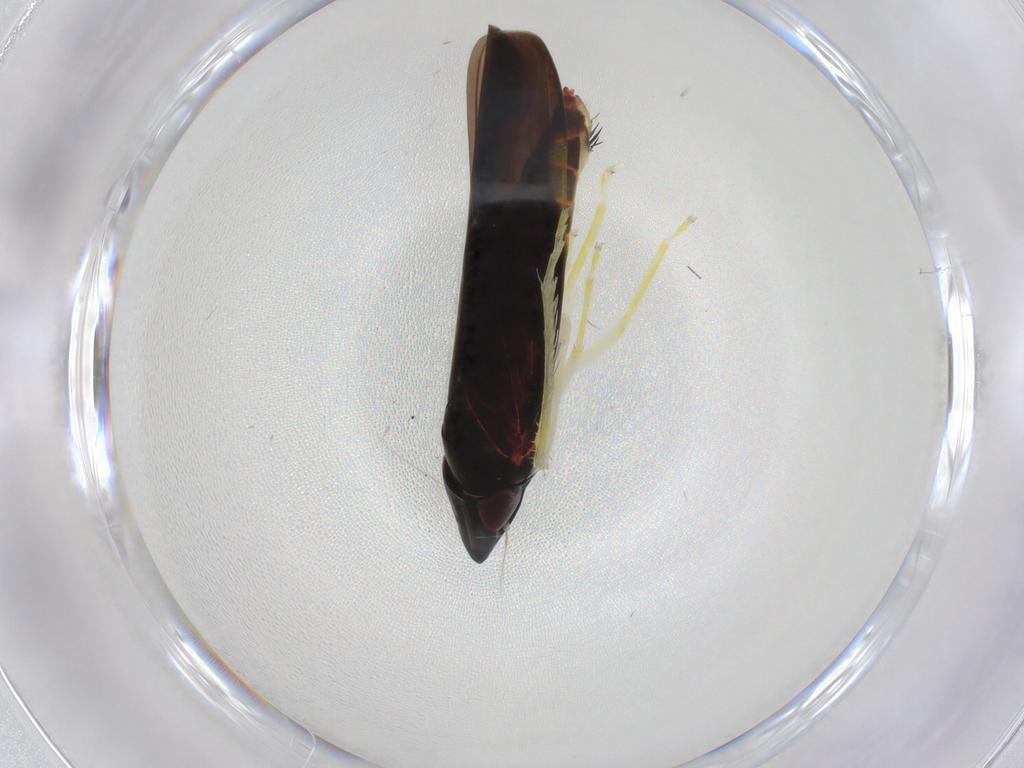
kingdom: Animalia
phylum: Arthropoda
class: Insecta
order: Hemiptera
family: Cicadellidae
